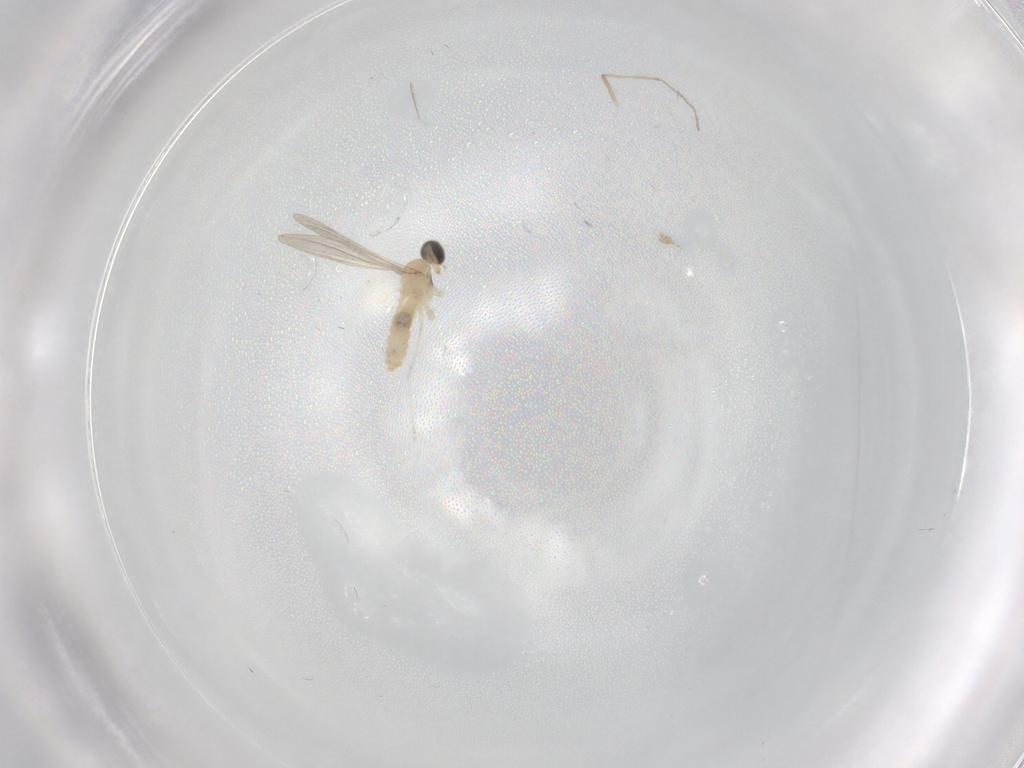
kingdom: Animalia
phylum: Arthropoda
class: Insecta
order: Diptera
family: Cecidomyiidae
